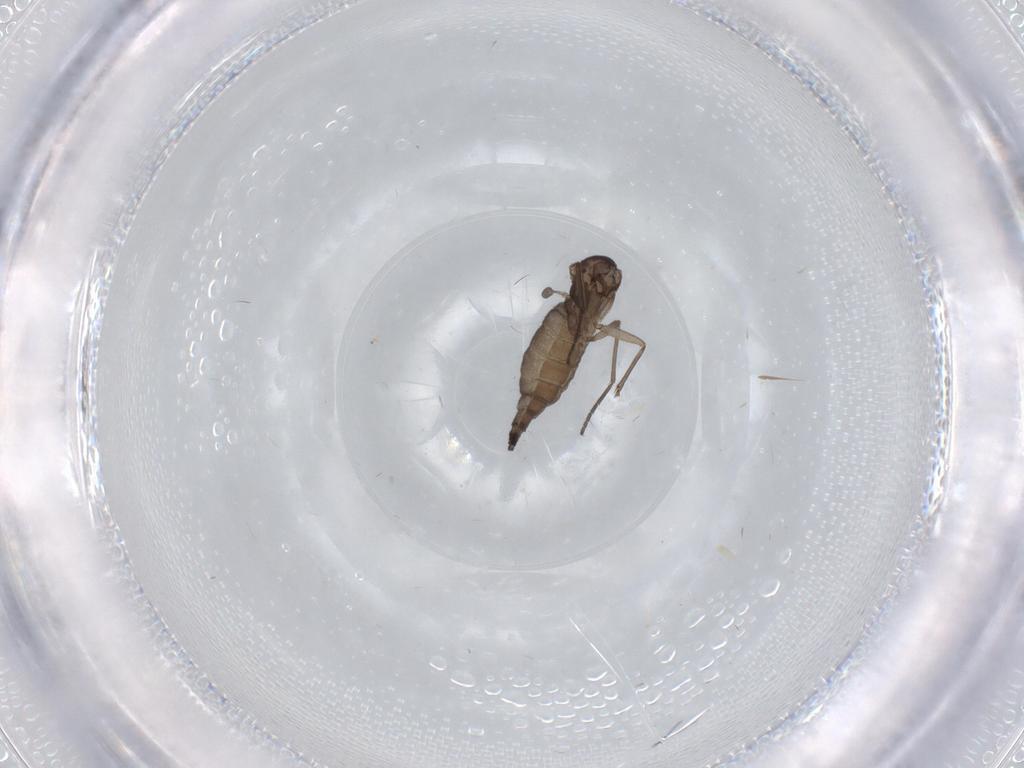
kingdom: Animalia
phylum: Arthropoda
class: Insecta
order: Diptera
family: Sciaridae
